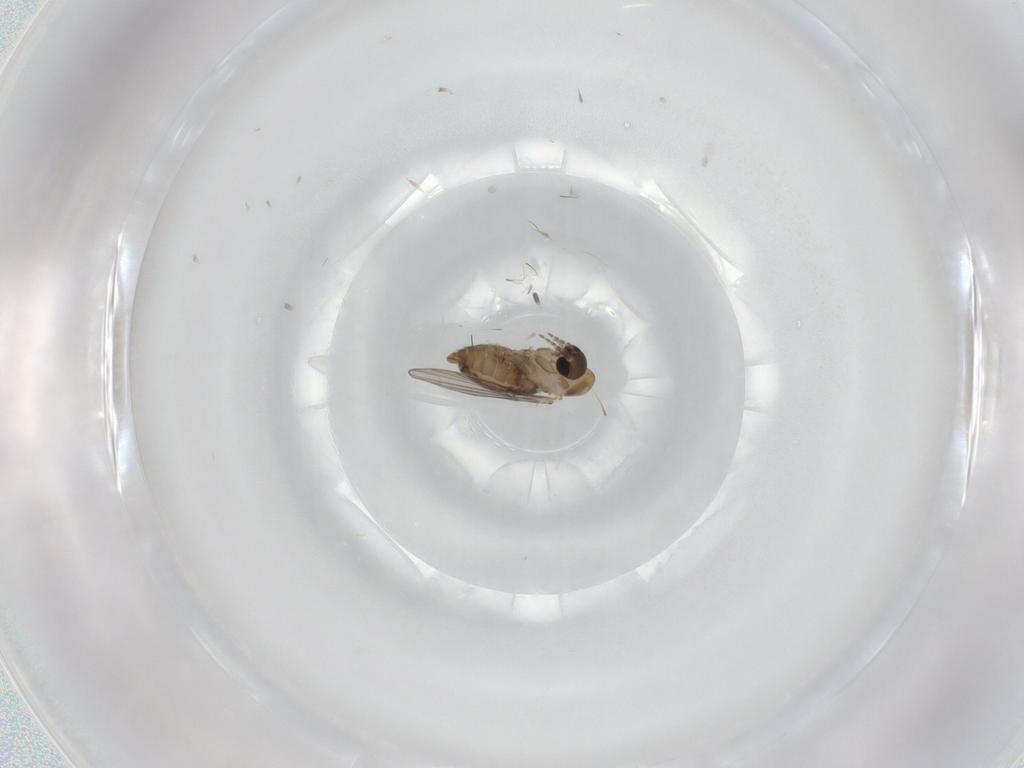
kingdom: Animalia
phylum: Arthropoda
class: Insecta
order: Diptera
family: Psychodidae
